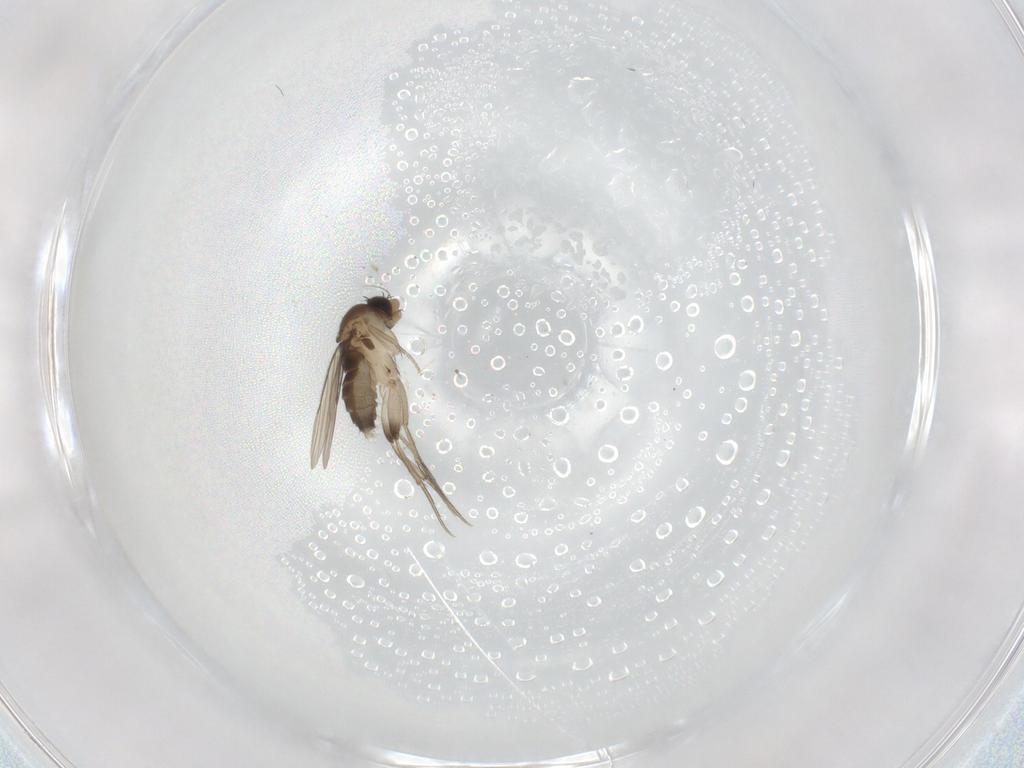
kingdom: Animalia
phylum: Arthropoda
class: Insecta
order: Diptera
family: Phoridae
